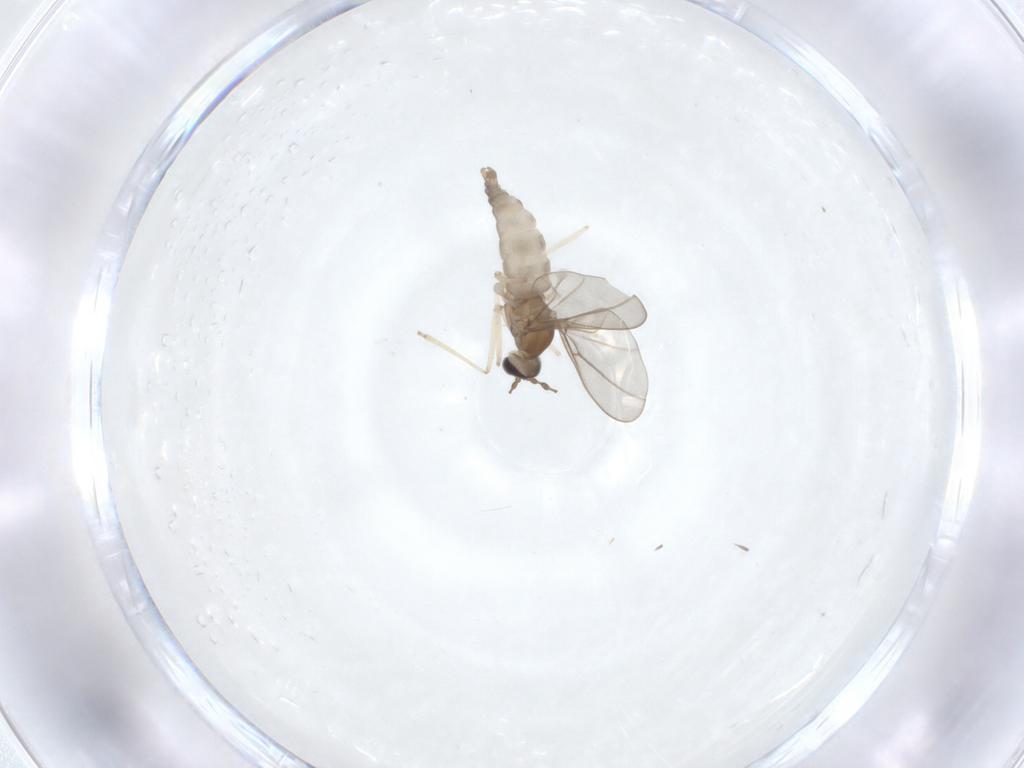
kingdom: Animalia
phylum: Arthropoda
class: Insecta
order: Diptera
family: Cecidomyiidae
